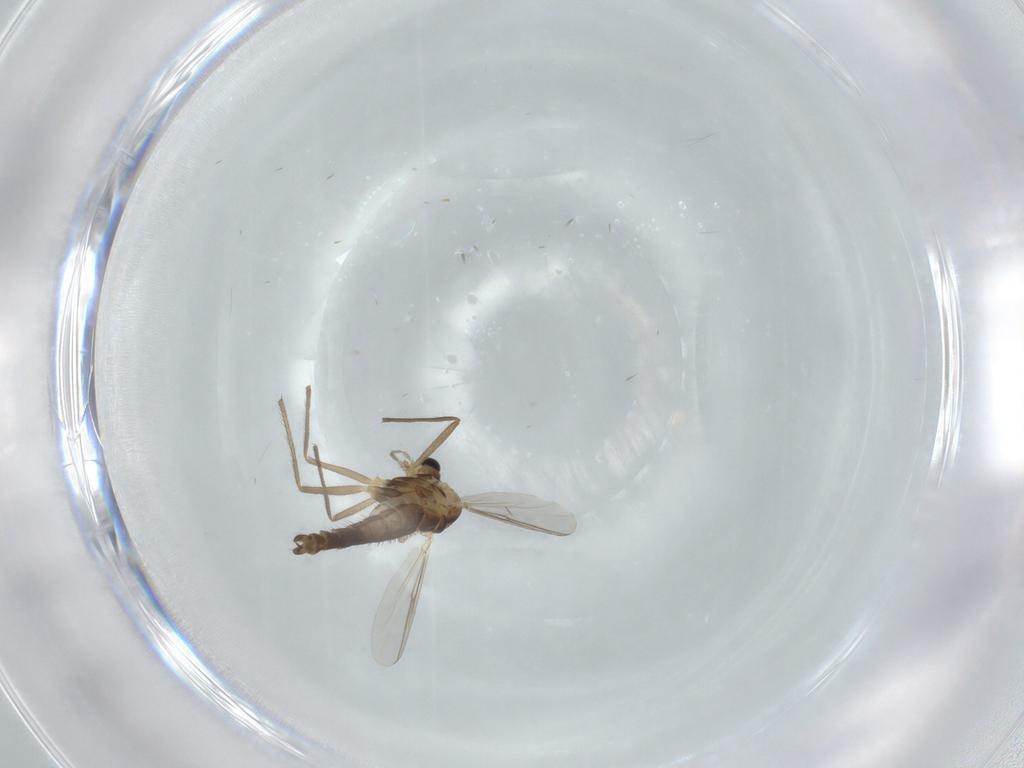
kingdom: Animalia
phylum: Arthropoda
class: Insecta
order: Diptera
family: Chironomidae
